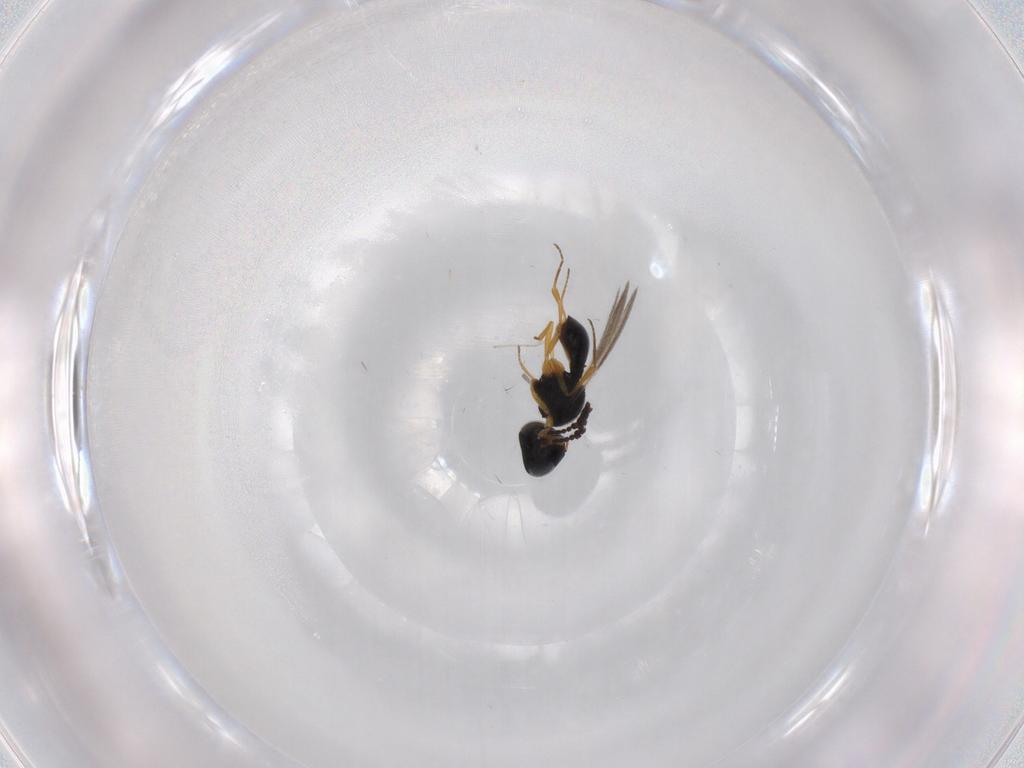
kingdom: Animalia
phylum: Arthropoda
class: Insecta
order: Hymenoptera
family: Scelionidae
